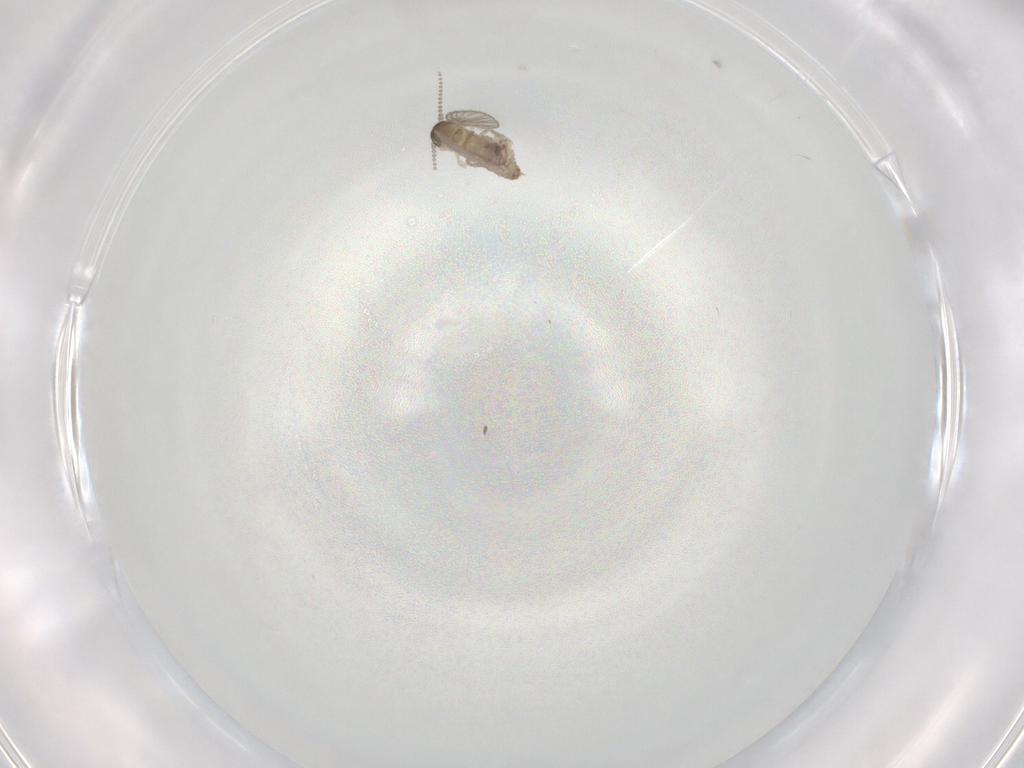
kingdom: Animalia
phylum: Arthropoda
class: Insecta
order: Diptera
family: Psychodidae
